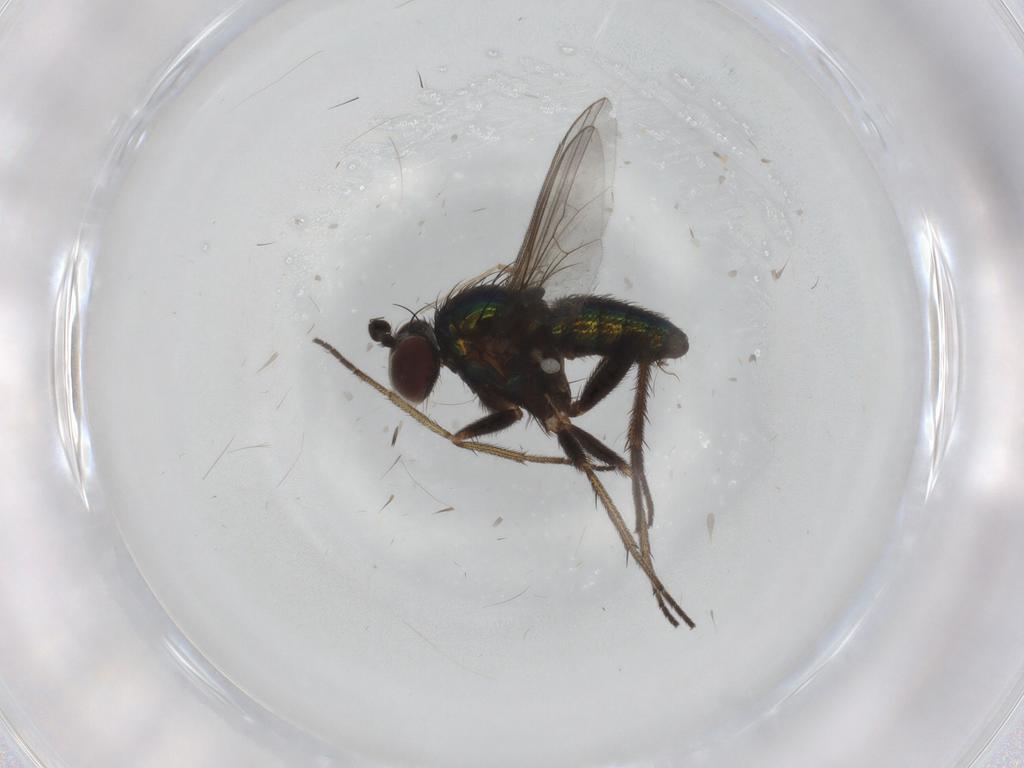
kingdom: Animalia
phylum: Arthropoda
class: Insecta
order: Diptera
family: Dolichopodidae
